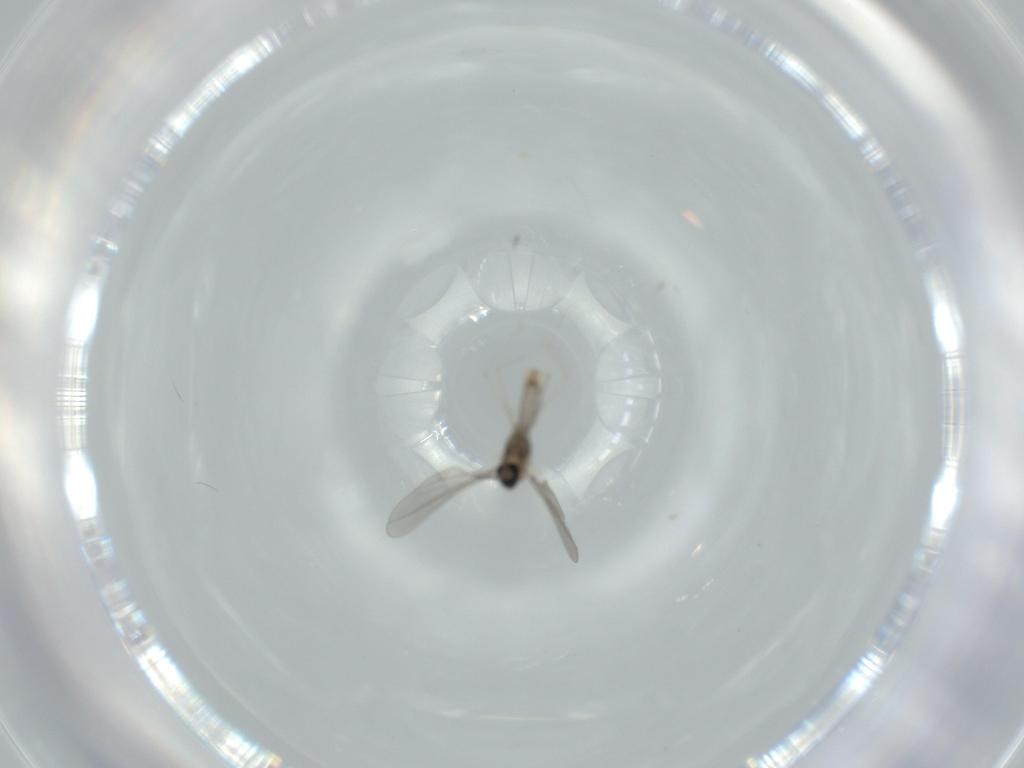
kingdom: Animalia
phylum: Arthropoda
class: Insecta
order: Diptera
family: Cecidomyiidae
